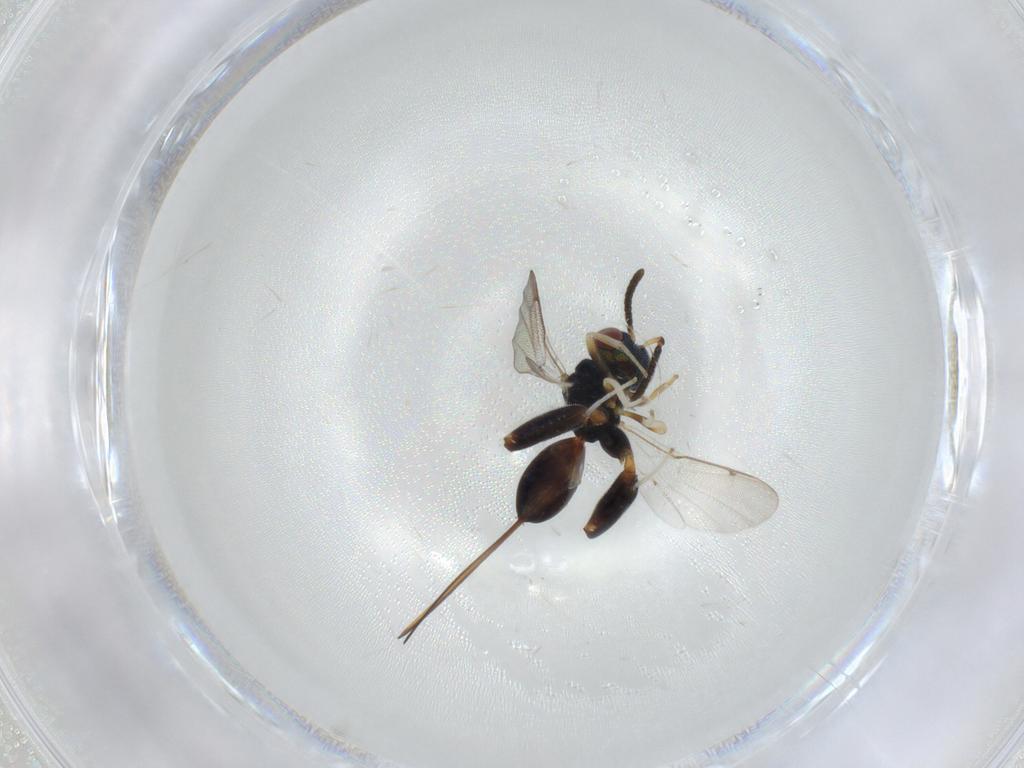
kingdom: Animalia
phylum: Arthropoda
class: Insecta
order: Hymenoptera
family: Torymidae
